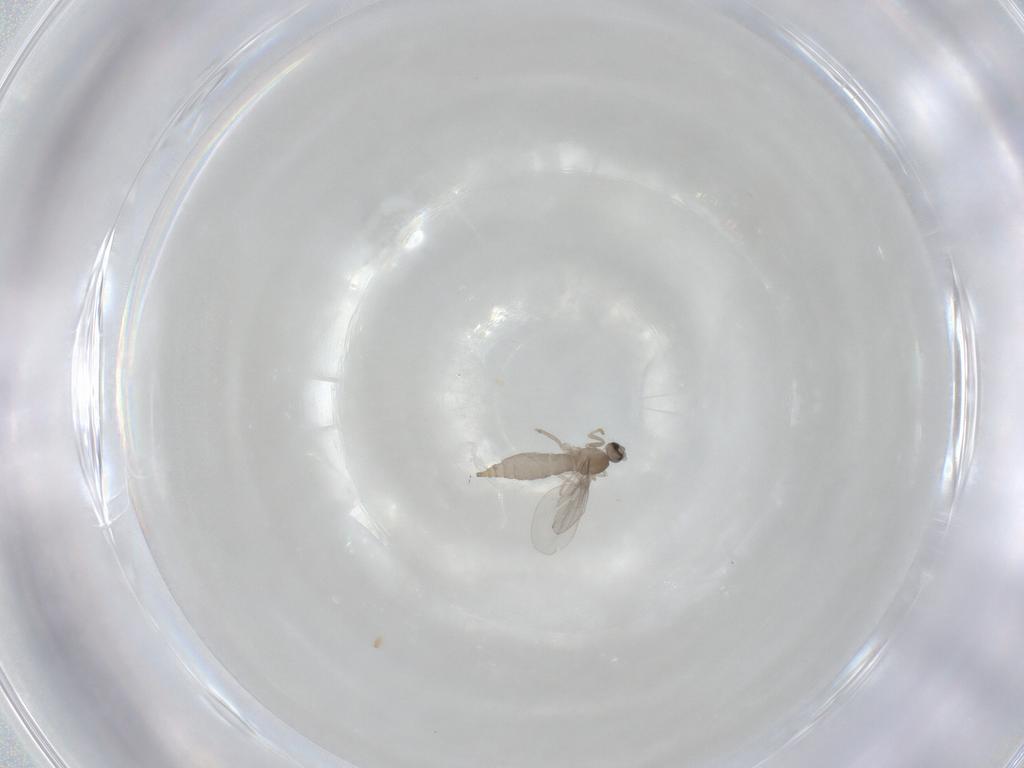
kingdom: Animalia
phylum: Arthropoda
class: Insecta
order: Diptera
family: Cecidomyiidae
